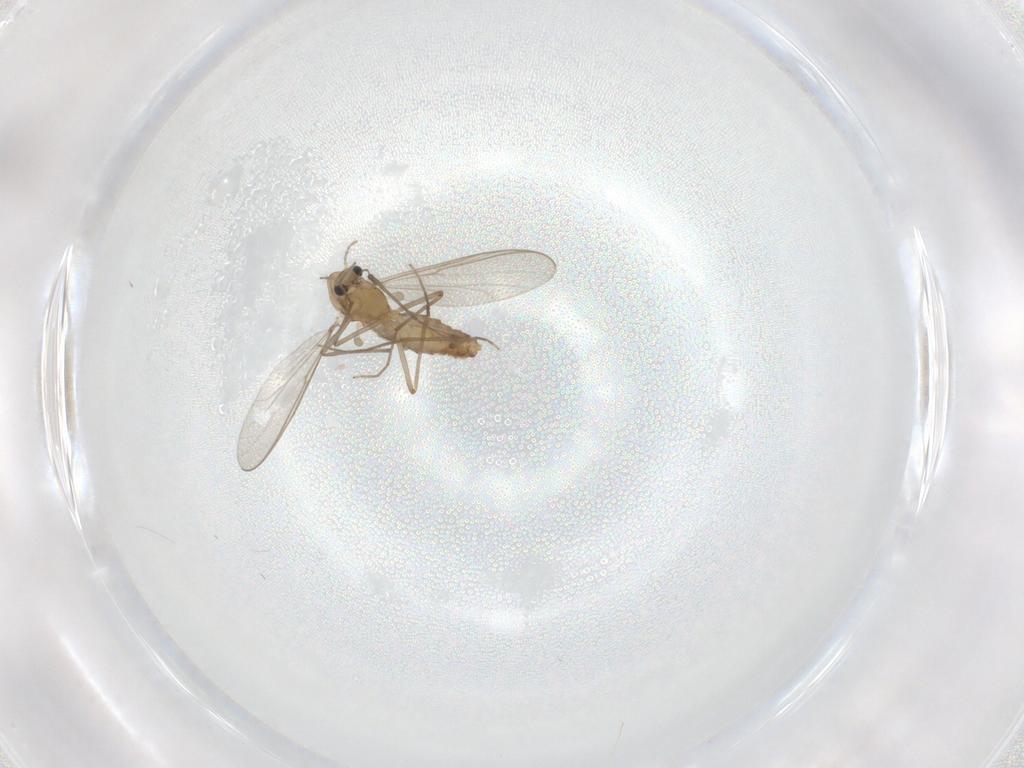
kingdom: Animalia
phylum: Arthropoda
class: Insecta
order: Diptera
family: Chironomidae
